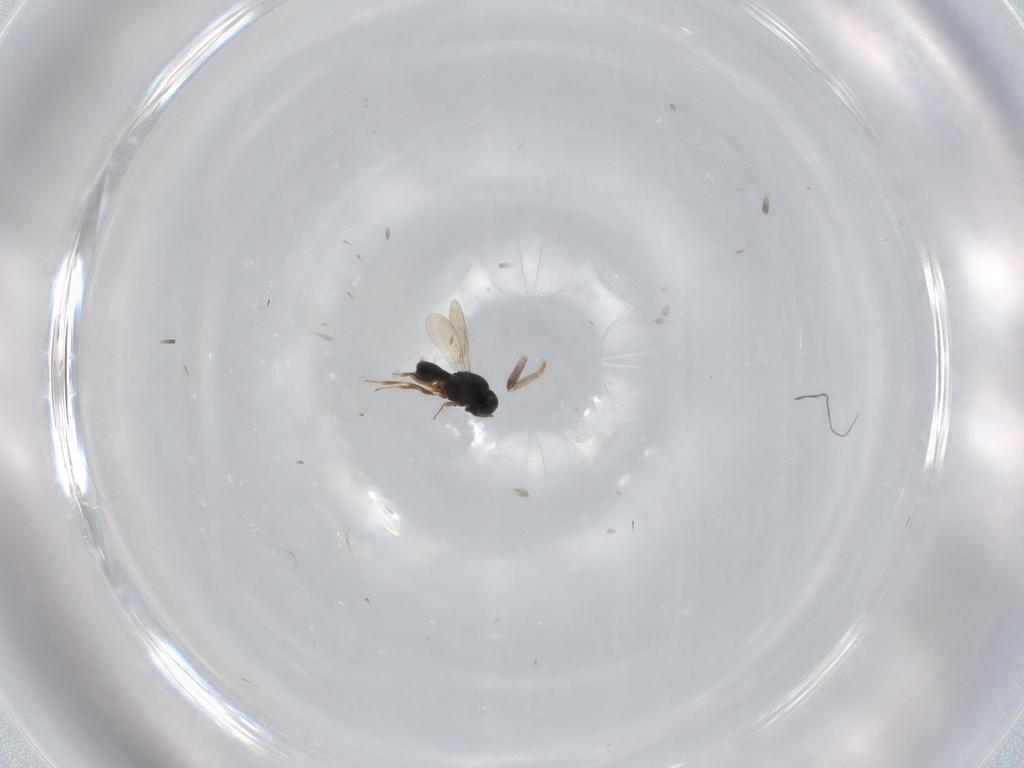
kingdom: Animalia
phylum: Arthropoda
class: Insecta
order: Hymenoptera
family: Scelionidae
